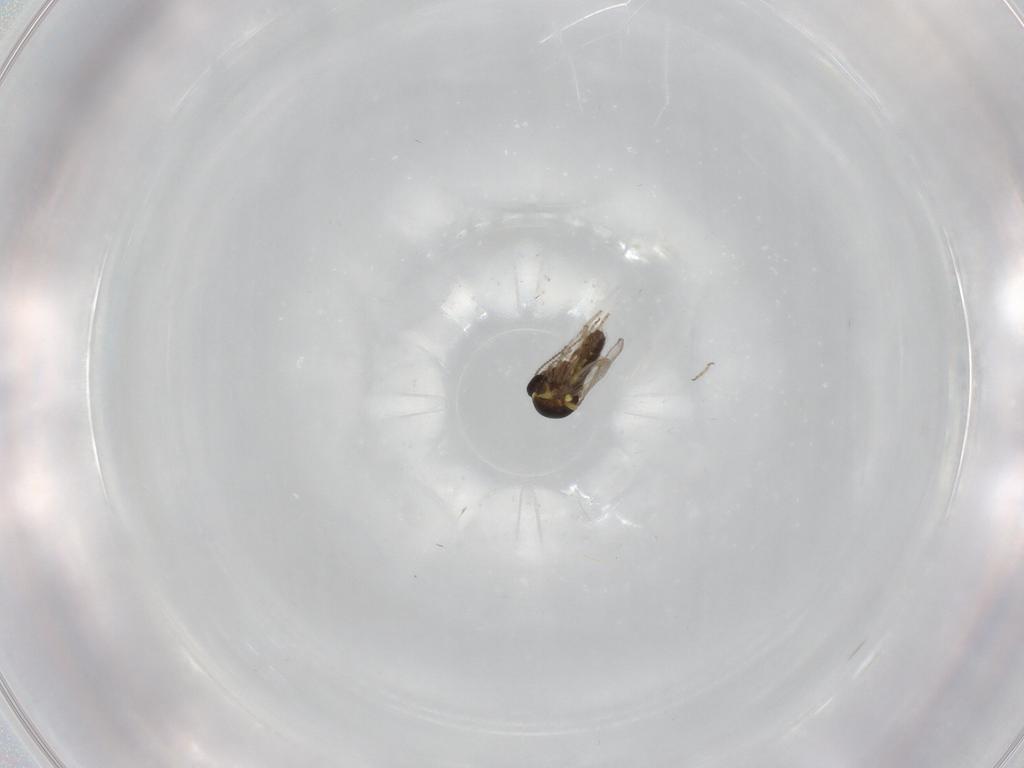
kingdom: Animalia
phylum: Arthropoda
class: Insecta
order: Diptera
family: Ceratopogonidae
